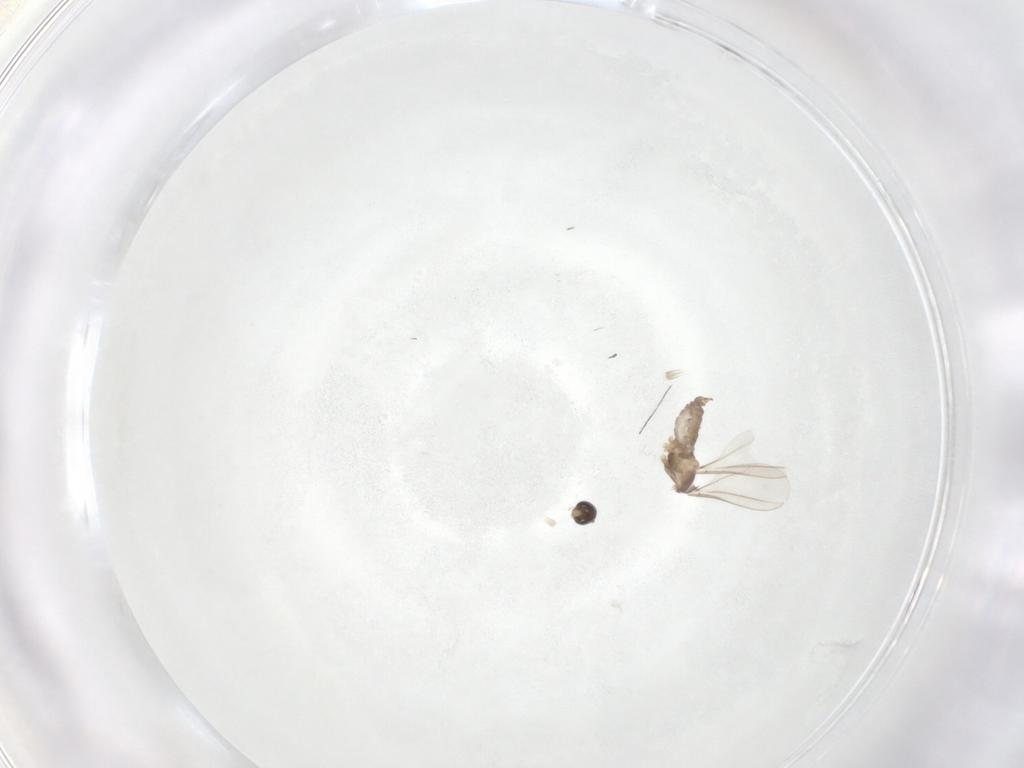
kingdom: Animalia
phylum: Arthropoda
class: Insecta
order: Diptera
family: Cecidomyiidae
